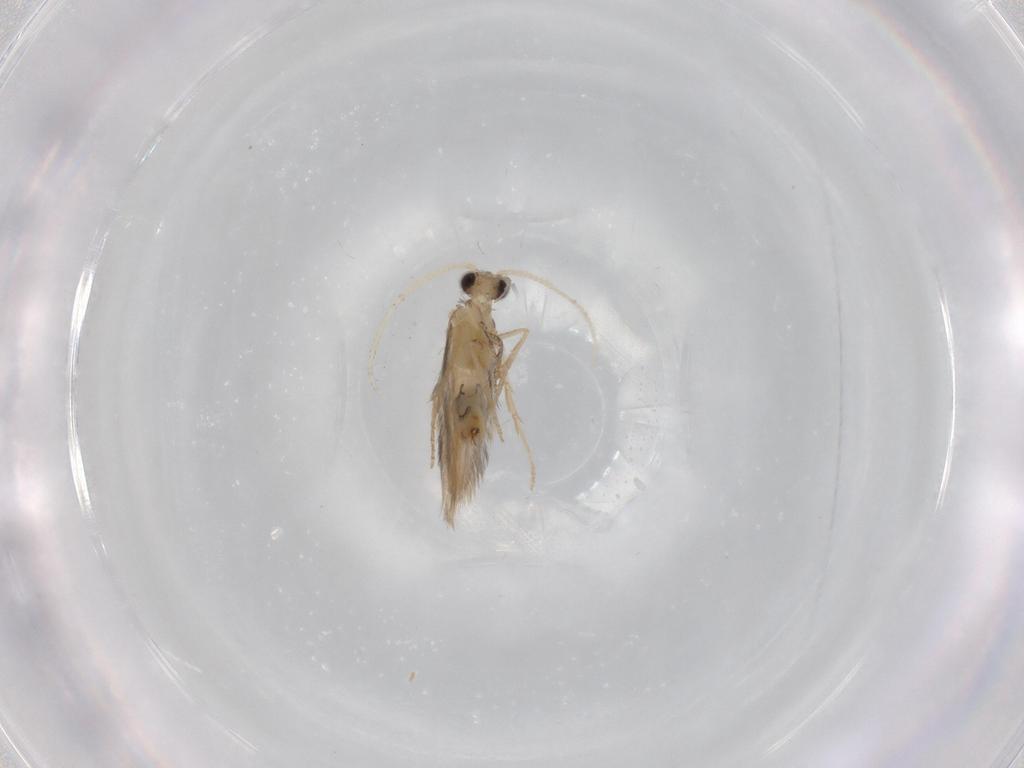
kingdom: Animalia
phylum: Arthropoda
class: Insecta
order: Trichoptera
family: Hydroptilidae
